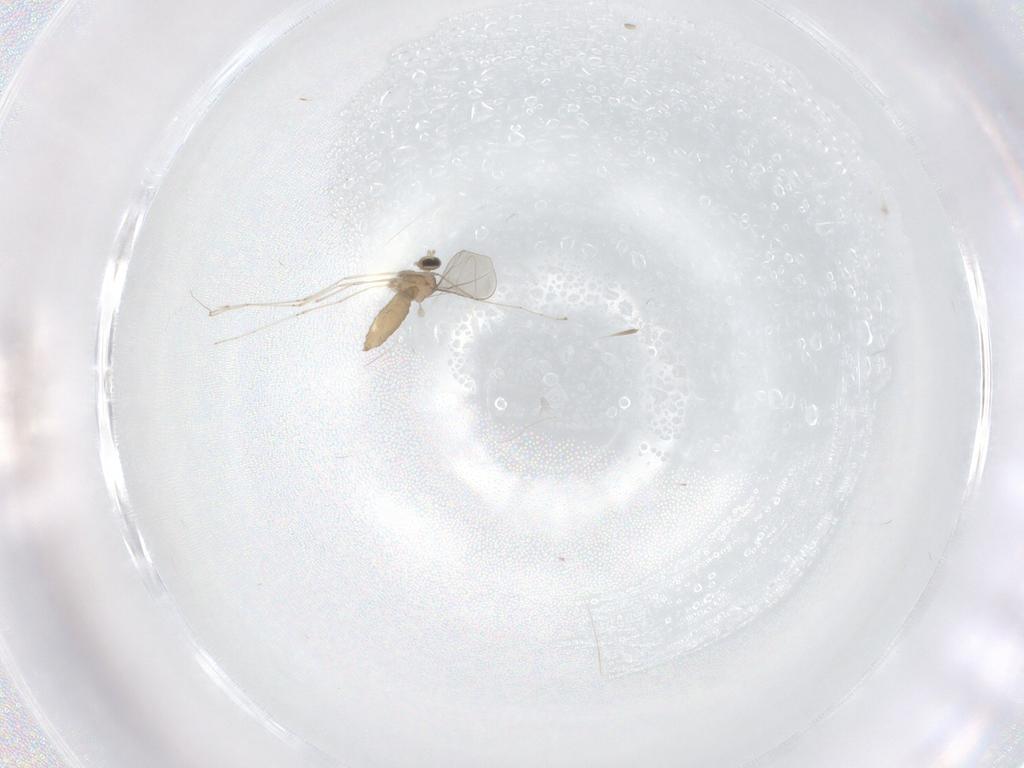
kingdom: Animalia
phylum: Arthropoda
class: Insecta
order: Diptera
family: Cecidomyiidae
